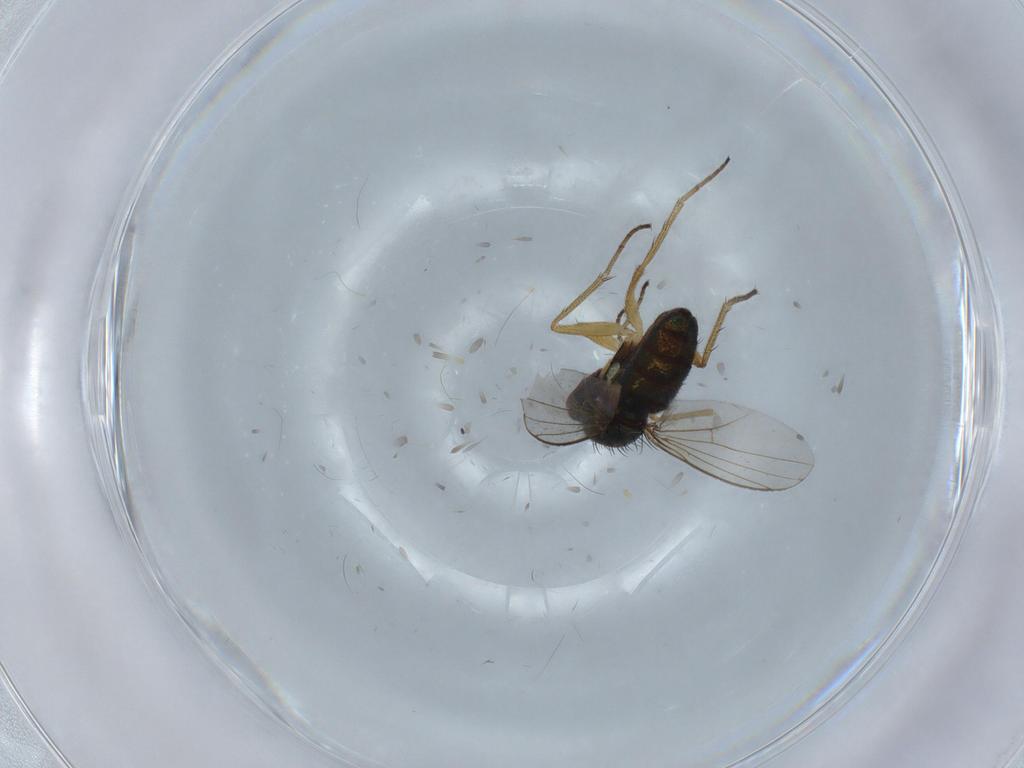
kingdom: Animalia
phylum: Arthropoda
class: Insecta
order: Diptera
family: Dolichopodidae
